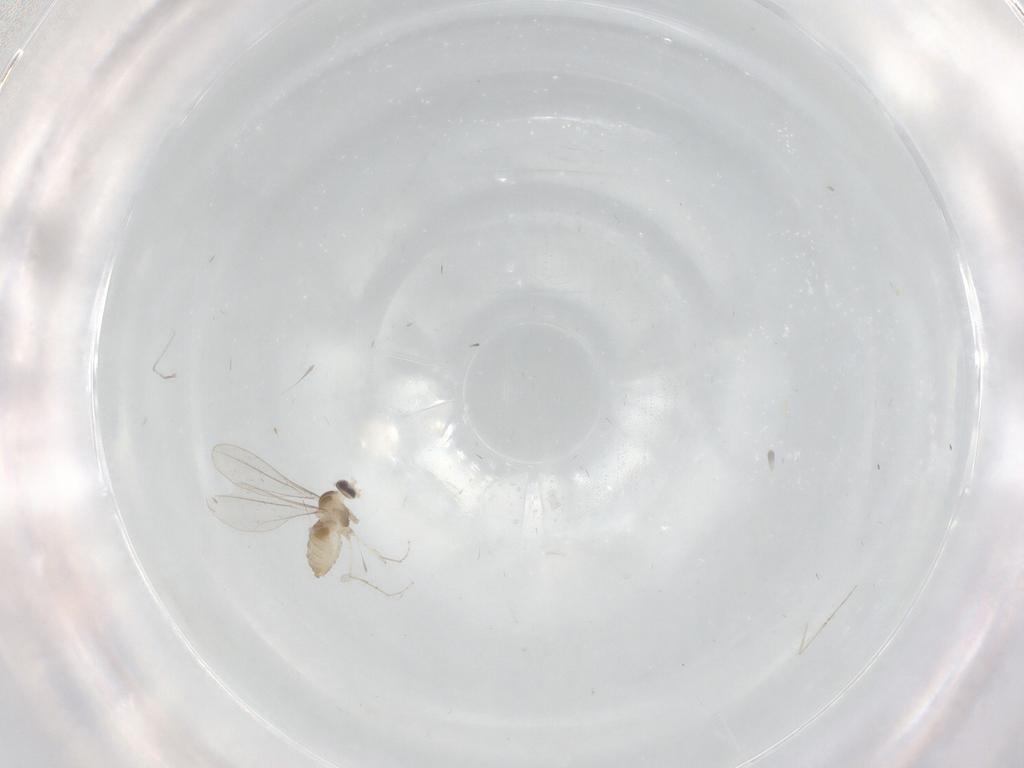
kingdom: Animalia
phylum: Arthropoda
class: Insecta
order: Diptera
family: Cecidomyiidae
